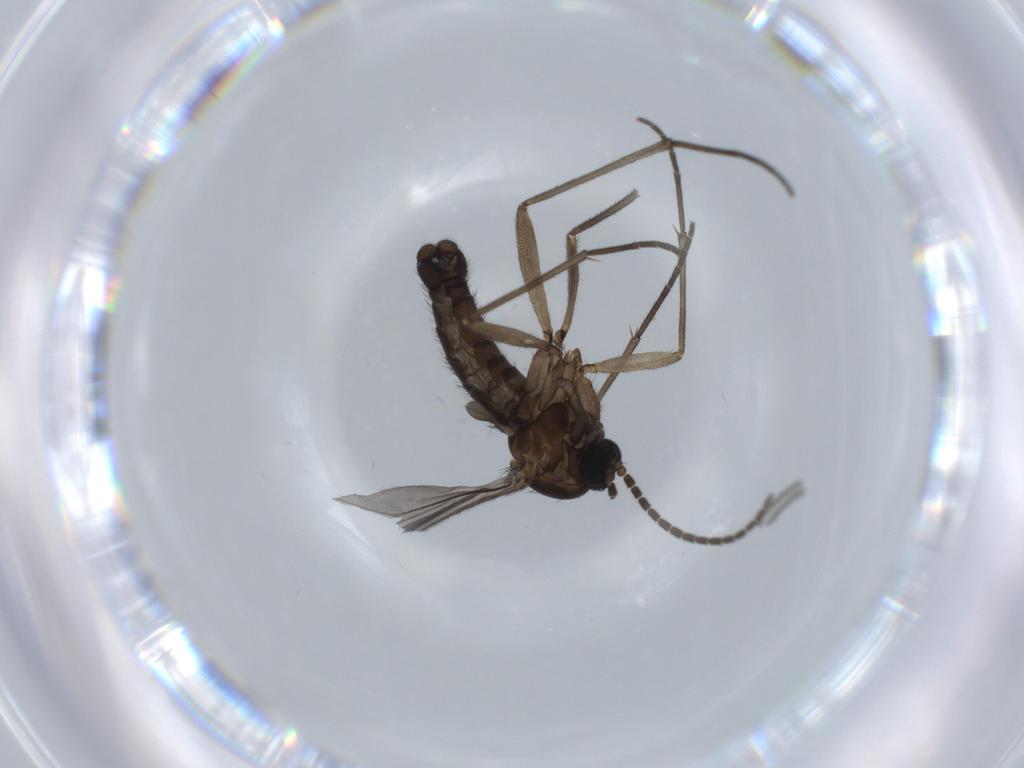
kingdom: Animalia
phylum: Arthropoda
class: Insecta
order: Diptera
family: Sciaridae
